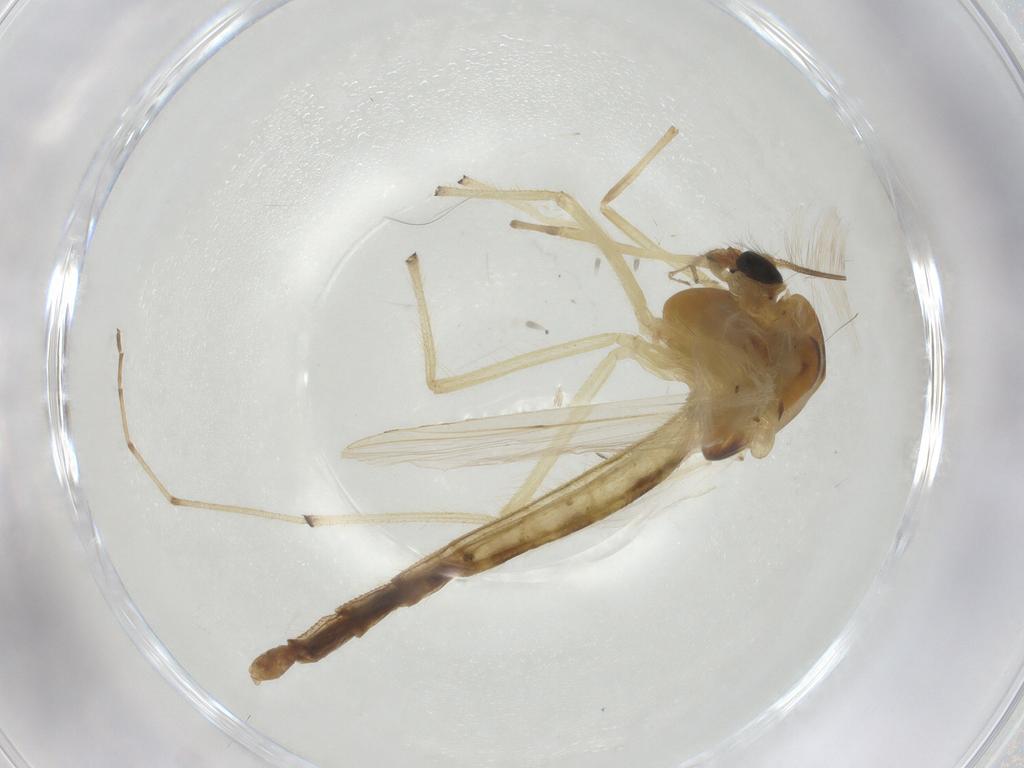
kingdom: Animalia
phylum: Arthropoda
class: Insecta
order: Diptera
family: Chironomidae
